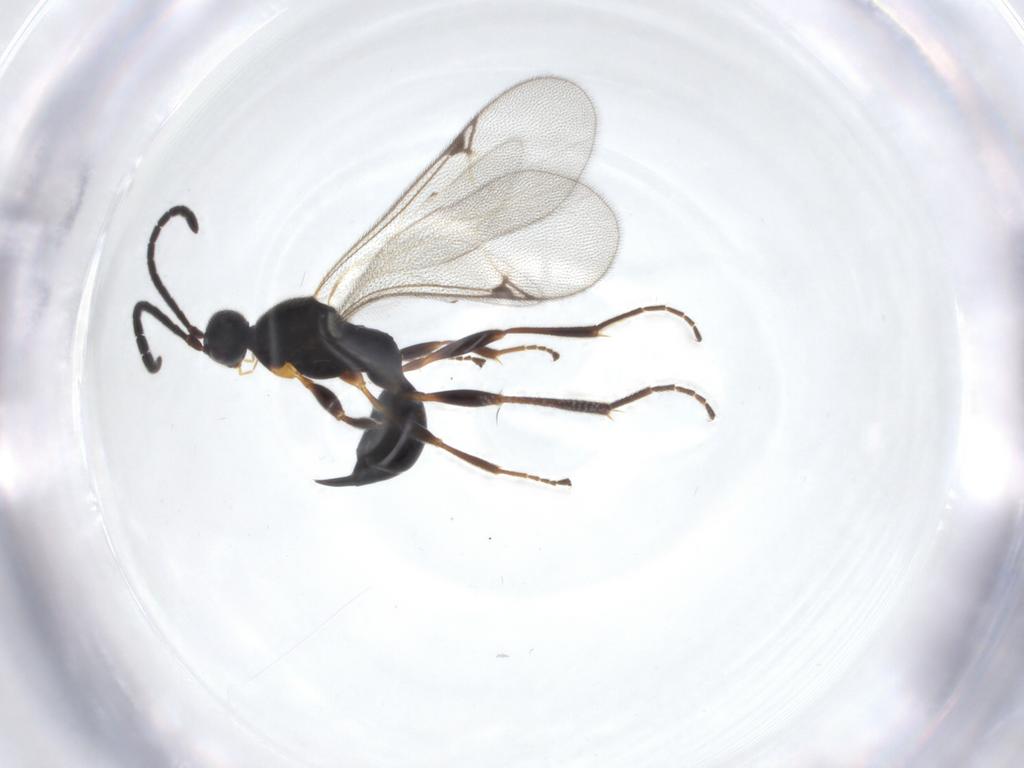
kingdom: Animalia
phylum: Arthropoda
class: Insecta
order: Hymenoptera
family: Proctotrupidae
